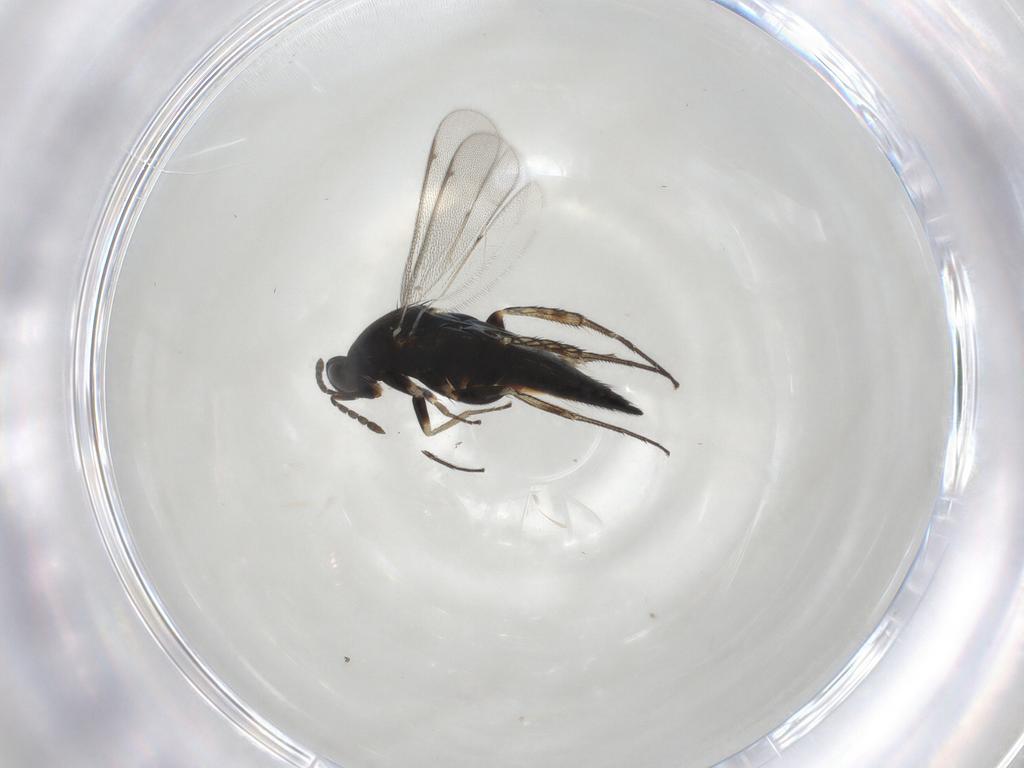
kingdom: Animalia
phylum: Arthropoda
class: Insecta
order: Hymenoptera
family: Eulophidae
